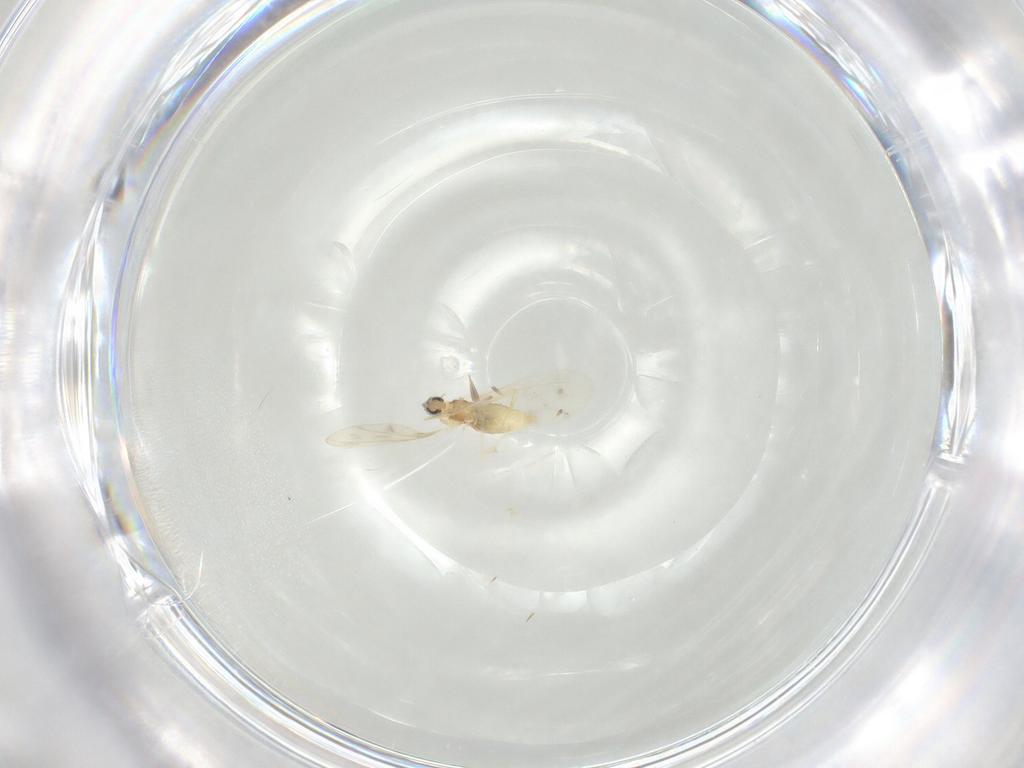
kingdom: Animalia
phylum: Arthropoda
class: Insecta
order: Diptera
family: Cecidomyiidae
